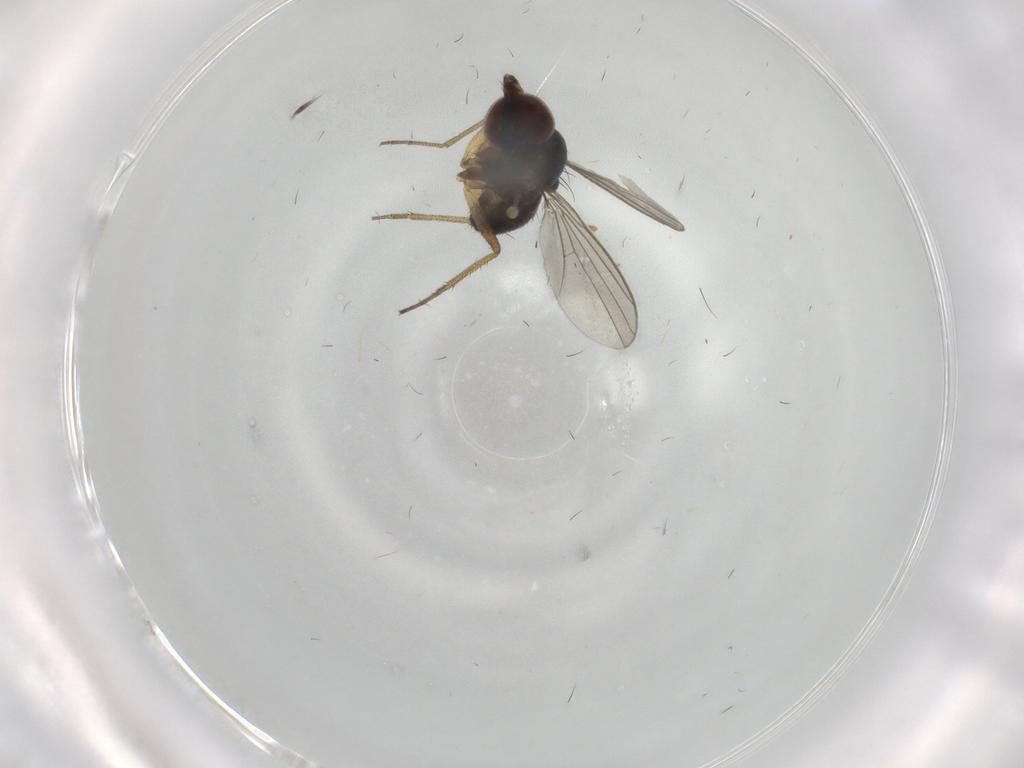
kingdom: Animalia
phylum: Arthropoda
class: Insecta
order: Diptera
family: Dolichopodidae
